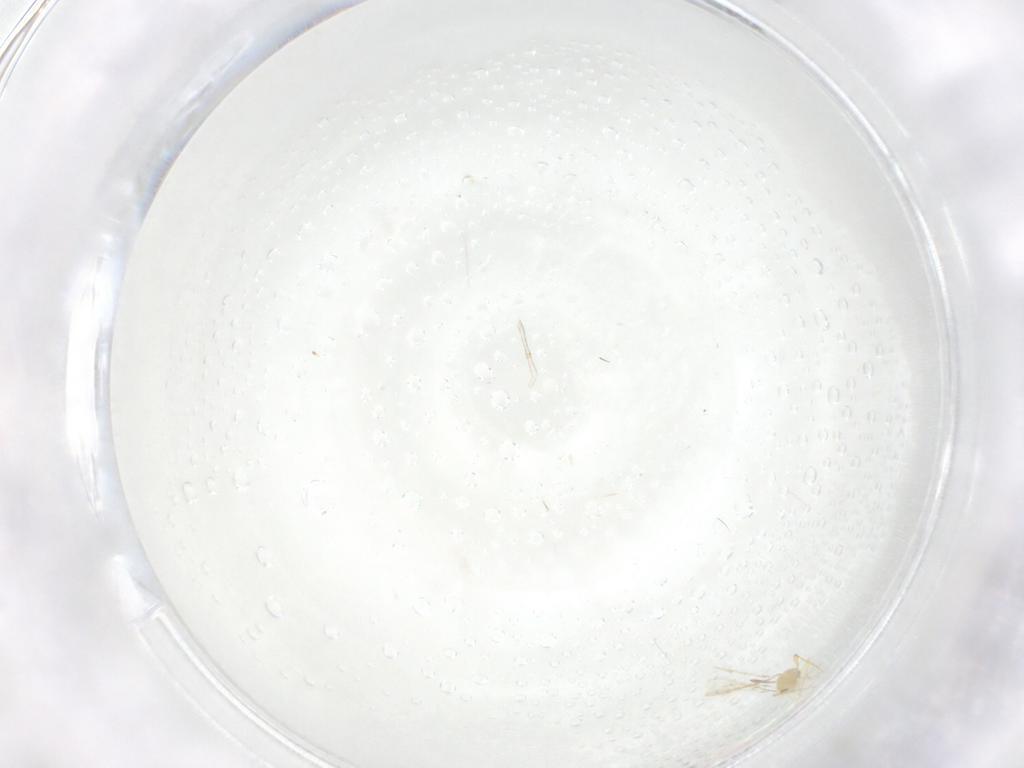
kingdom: Animalia
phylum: Arthropoda
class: Insecta
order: Hymenoptera
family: Mymaridae
